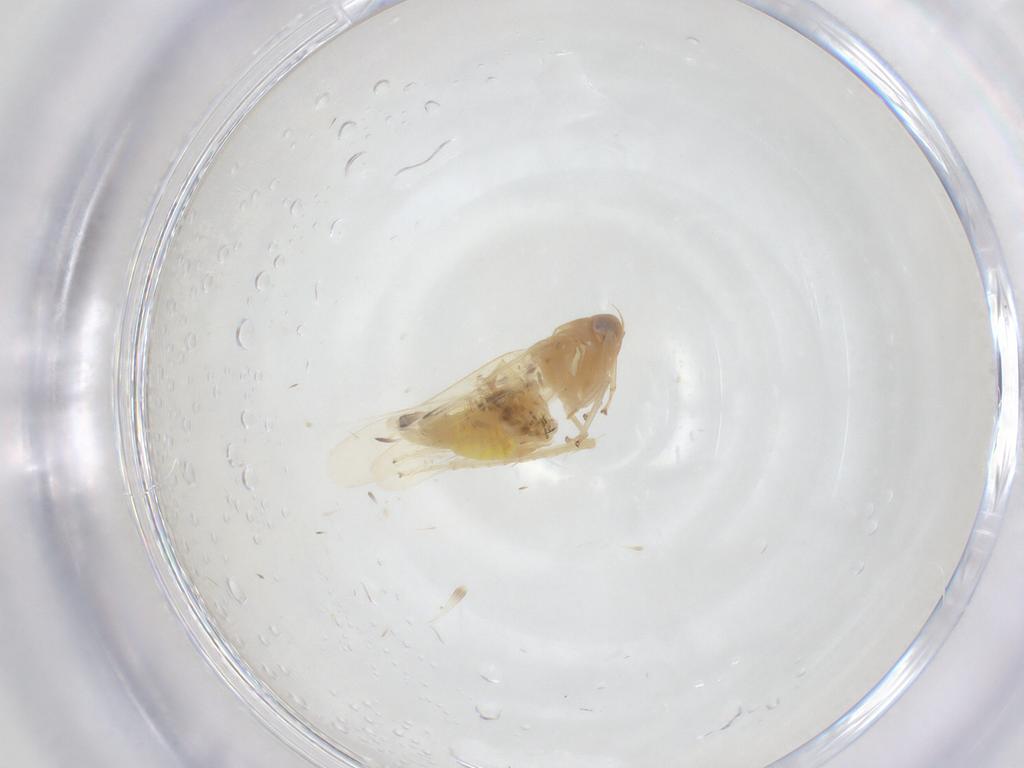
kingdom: Animalia
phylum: Arthropoda
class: Insecta
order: Hemiptera
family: Cicadellidae
